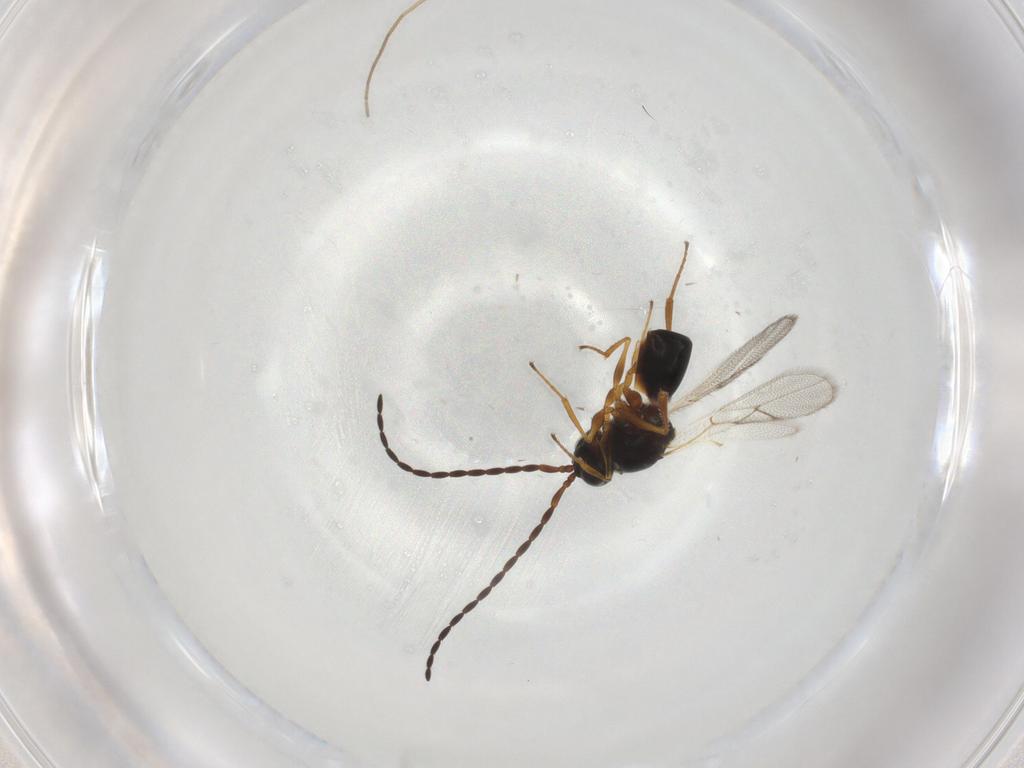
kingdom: Animalia
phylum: Arthropoda
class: Insecta
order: Hymenoptera
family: Figitidae
